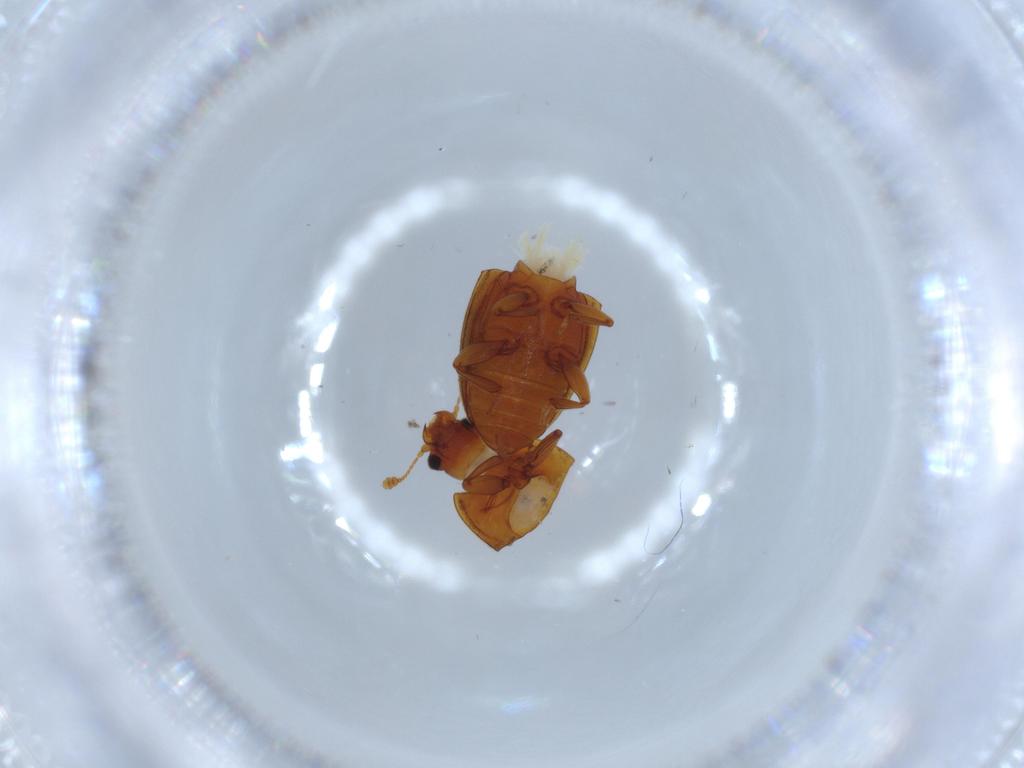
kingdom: Animalia
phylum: Arthropoda
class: Insecta
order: Coleoptera
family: Nitidulidae
